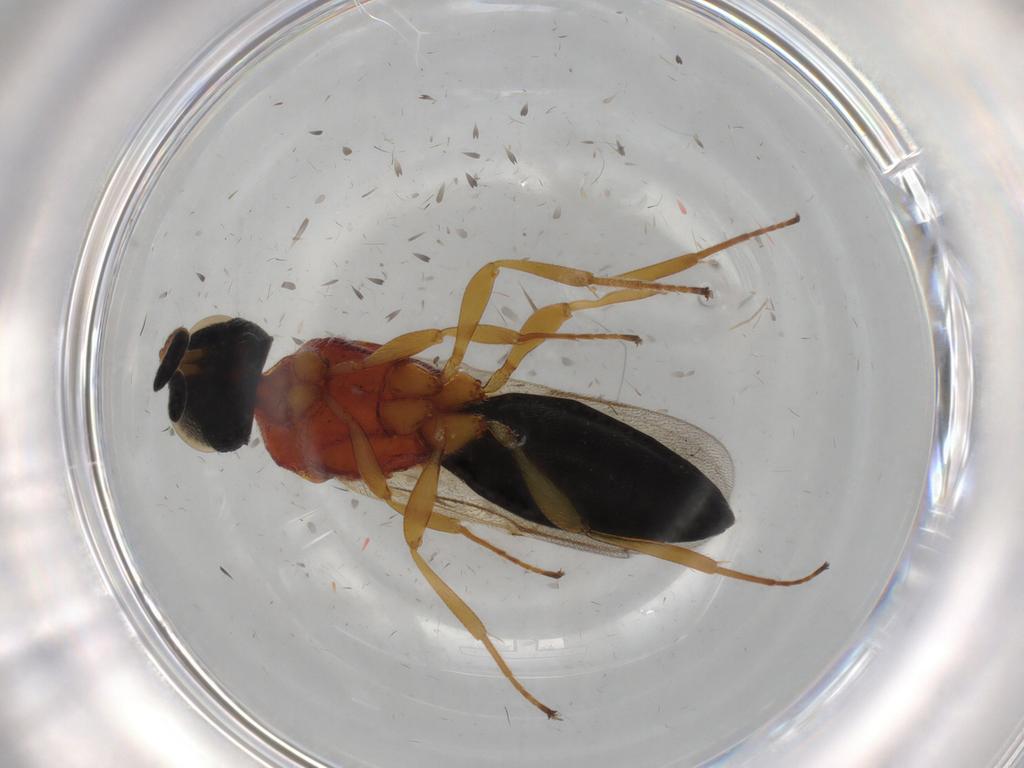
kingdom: Animalia
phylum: Arthropoda
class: Insecta
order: Hymenoptera
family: Scelionidae
